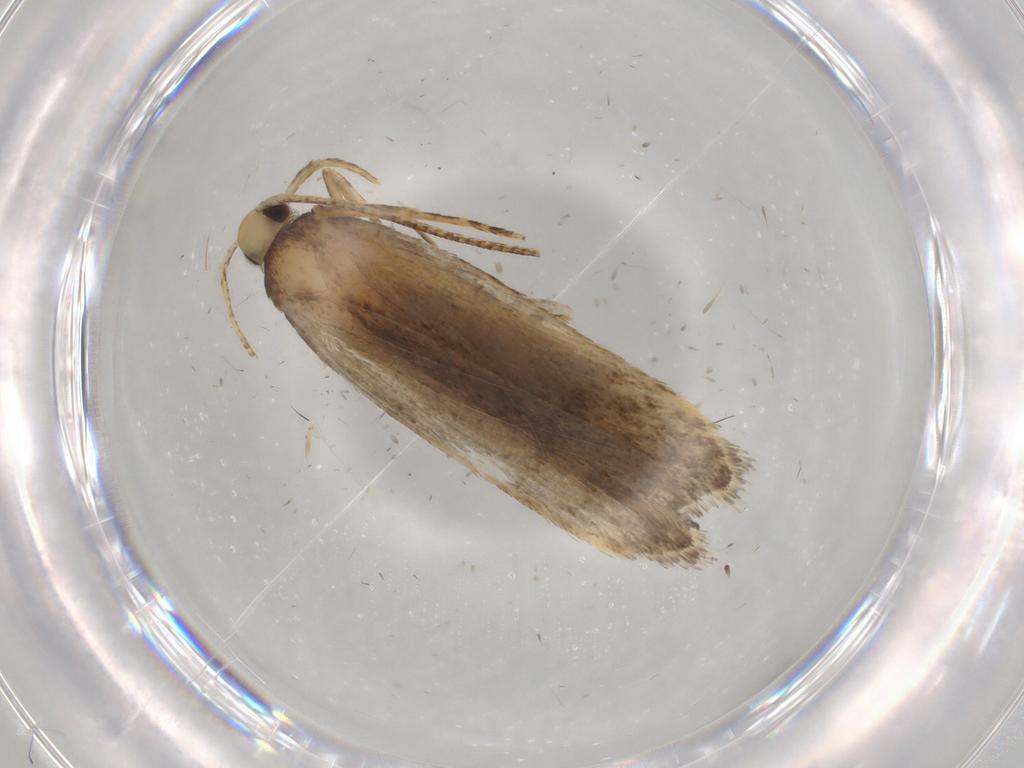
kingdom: Animalia
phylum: Arthropoda
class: Insecta
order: Lepidoptera
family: Autostichidae
